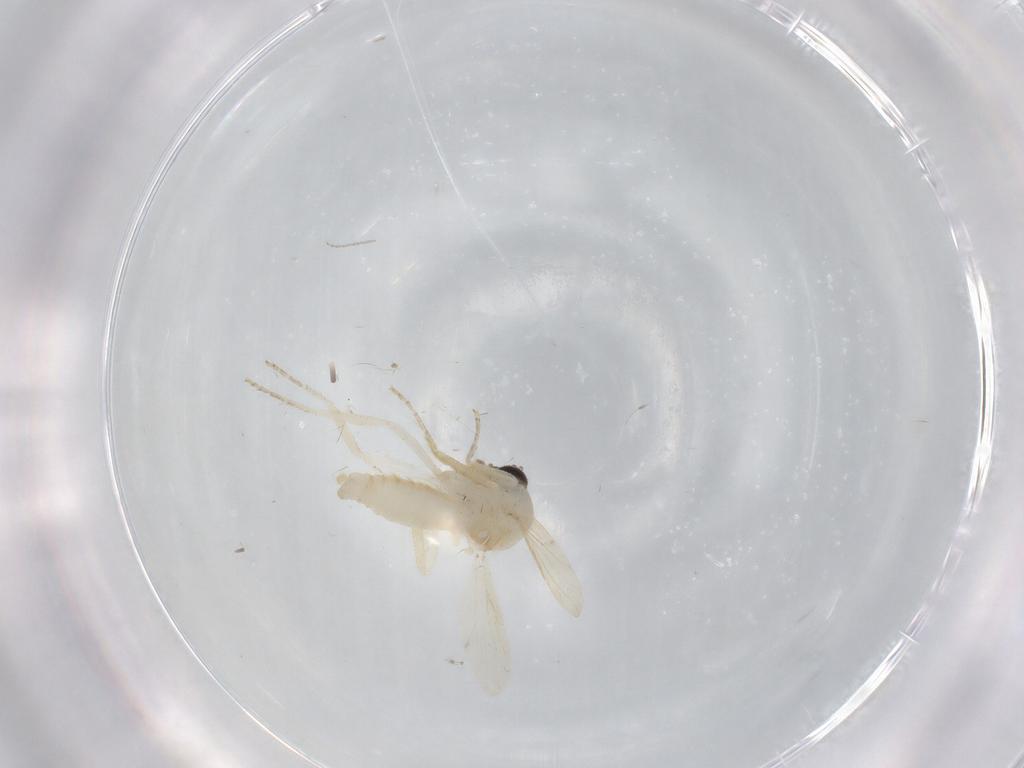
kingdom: Animalia
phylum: Arthropoda
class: Insecta
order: Diptera
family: Ceratopogonidae
